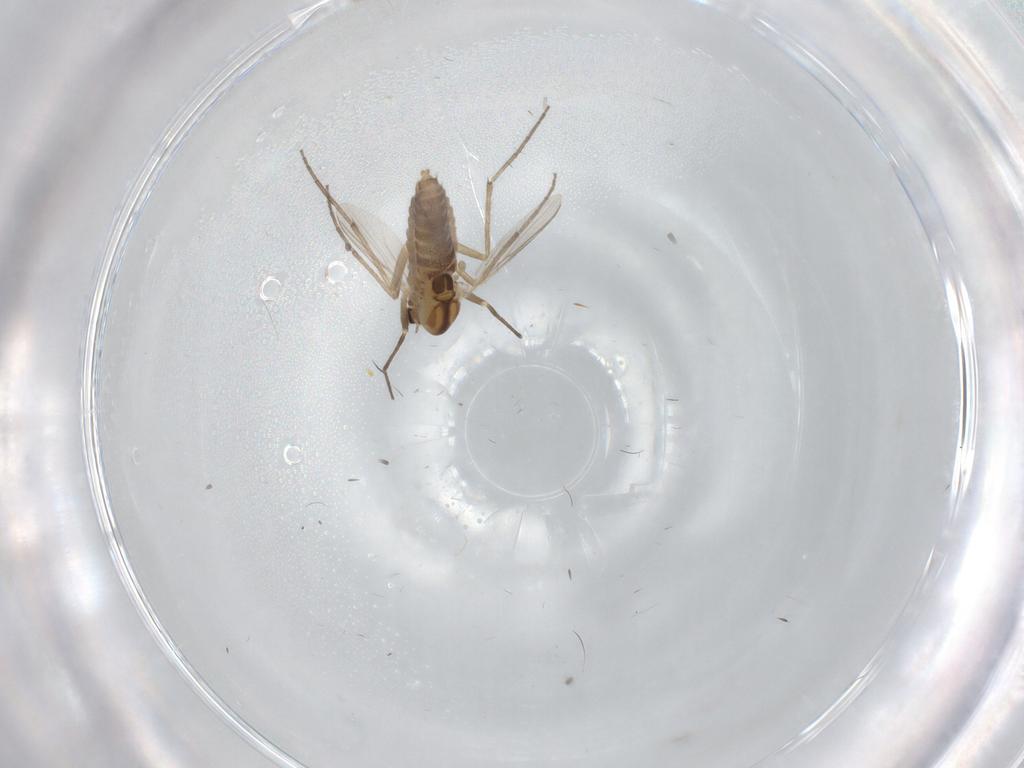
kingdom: Animalia
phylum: Arthropoda
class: Insecta
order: Diptera
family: Chironomidae
